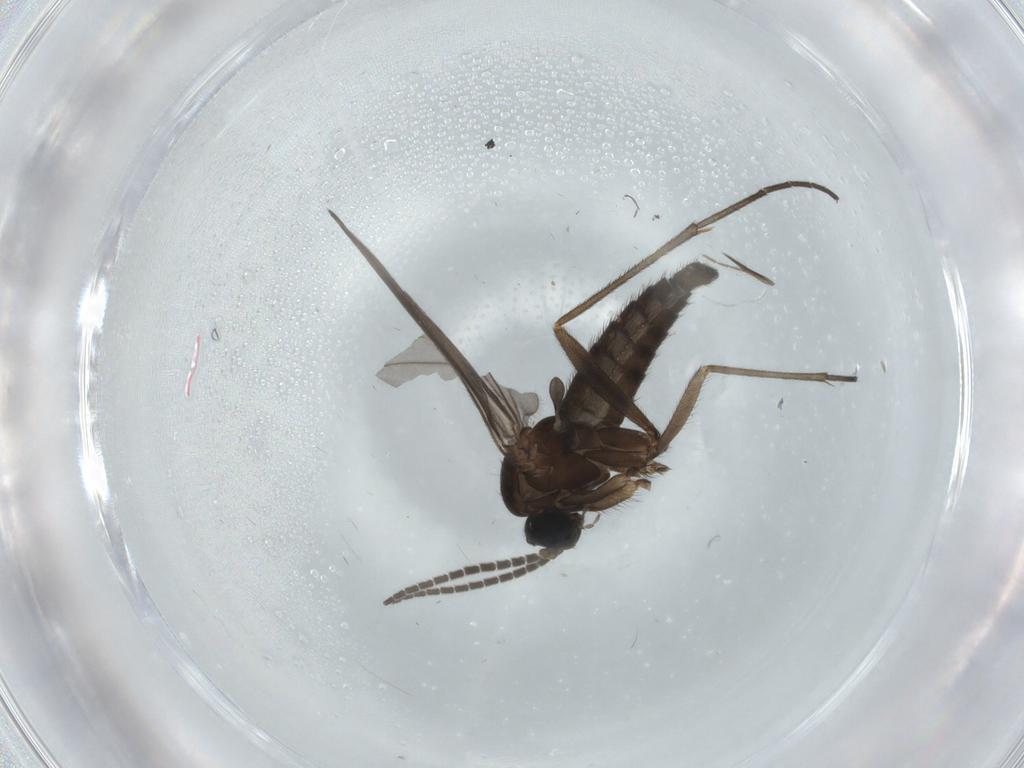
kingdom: Animalia
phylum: Arthropoda
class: Insecta
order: Diptera
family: Sciaridae
